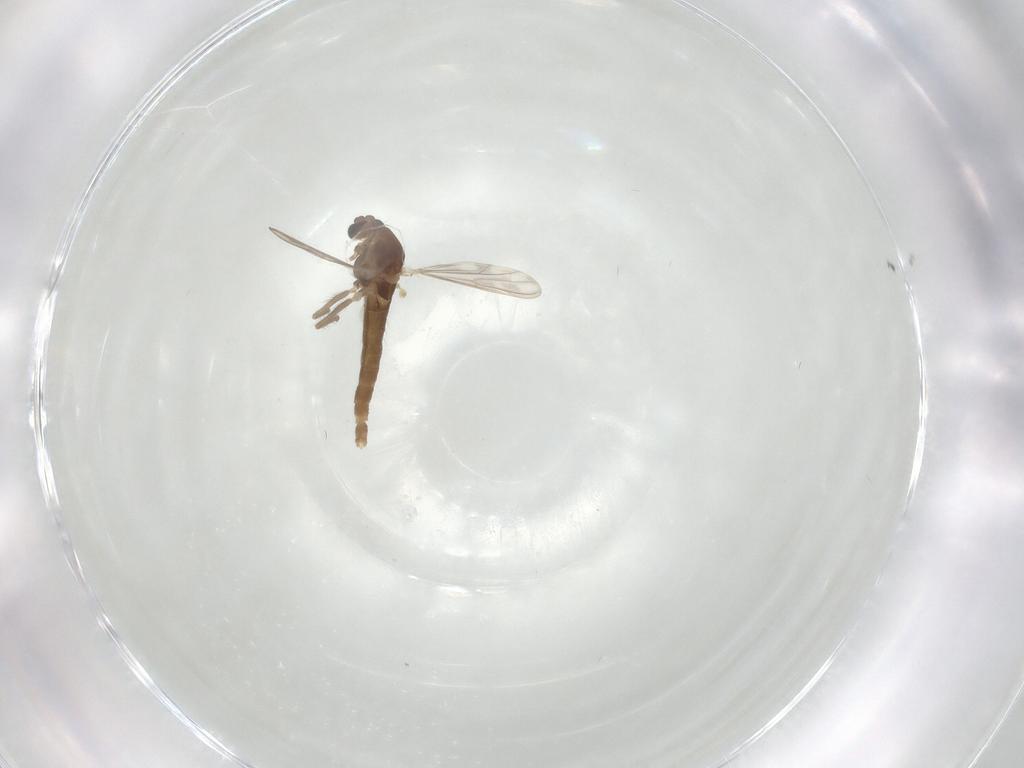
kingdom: Animalia
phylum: Arthropoda
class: Insecta
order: Diptera
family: Chironomidae
